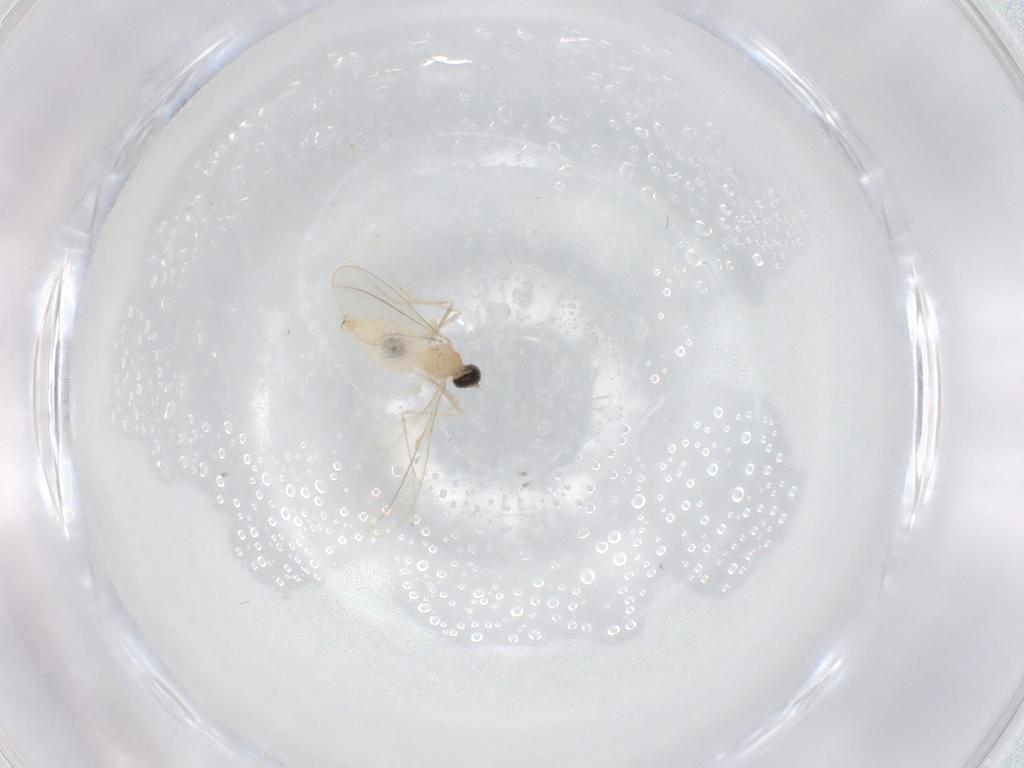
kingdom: Animalia
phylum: Arthropoda
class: Insecta
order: Diptera
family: Cecidomyiidae
